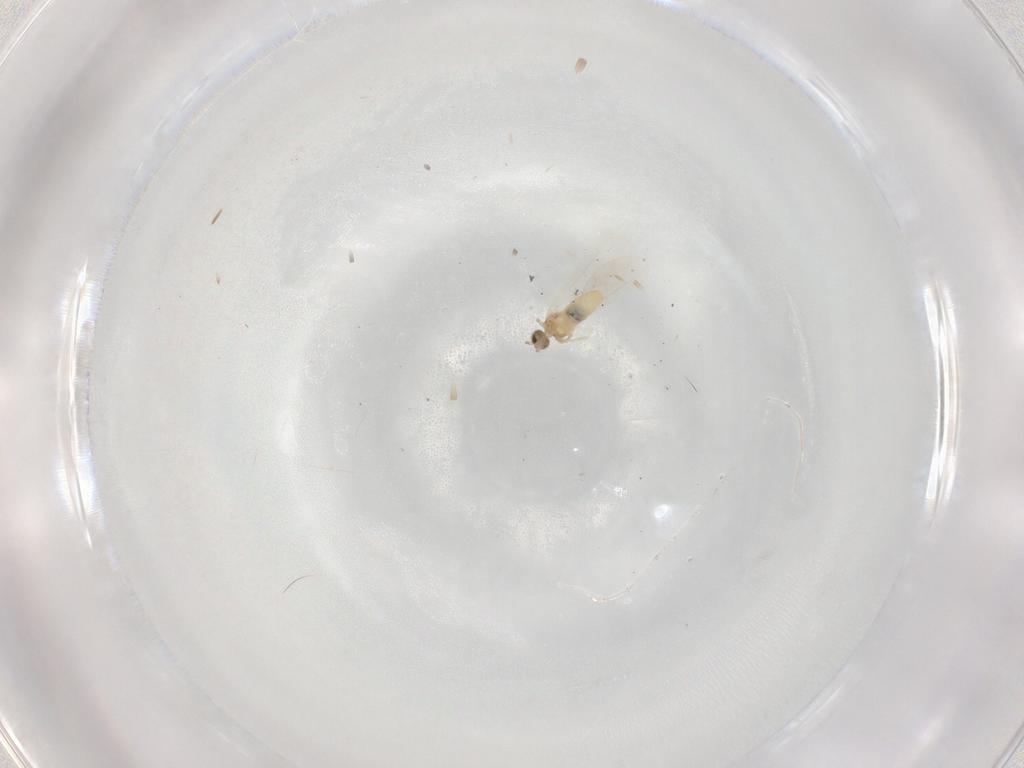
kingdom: Animalia
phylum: Arthropoda
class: Insecta
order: Diptera
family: Cecidomyiidae
